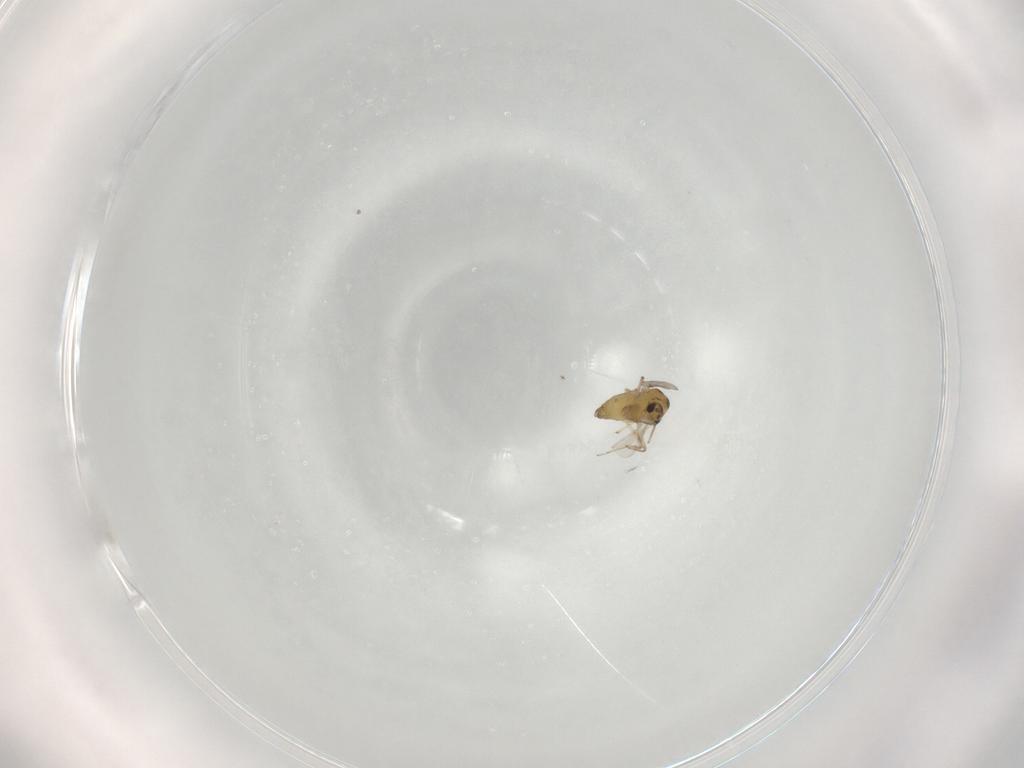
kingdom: Animalia
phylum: Arthropoda
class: Insecta
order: Diptera
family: Chironomidae
